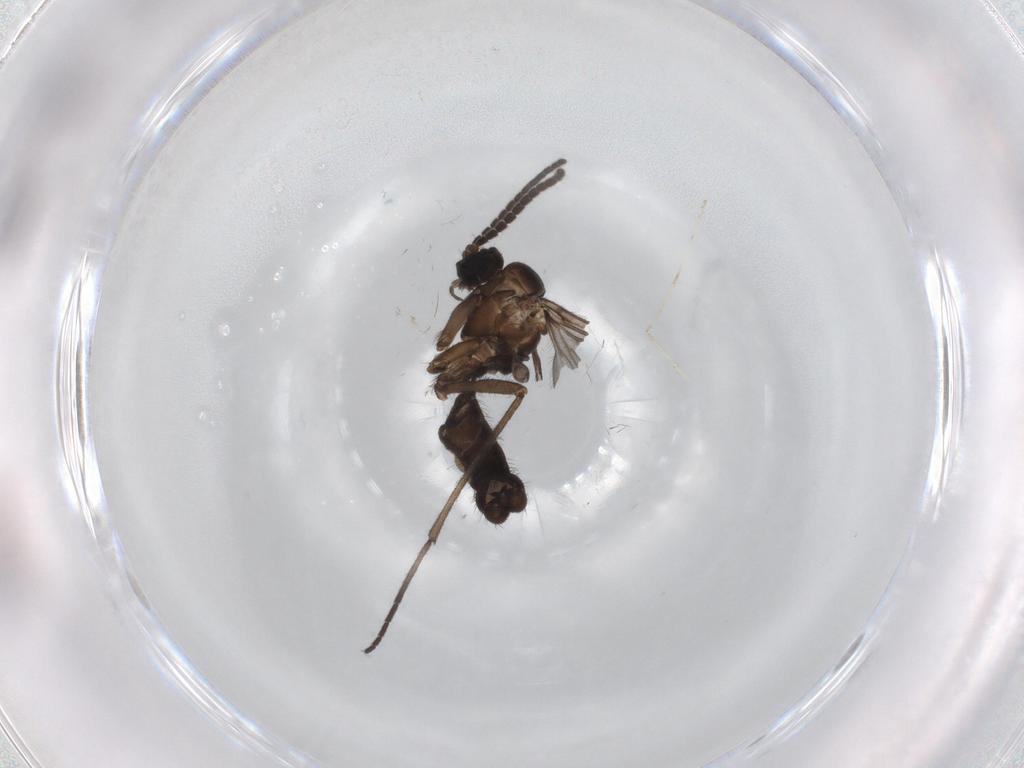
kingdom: Animalia
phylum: Arthropoda
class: Insecta
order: Diptera
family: Sciaridae
